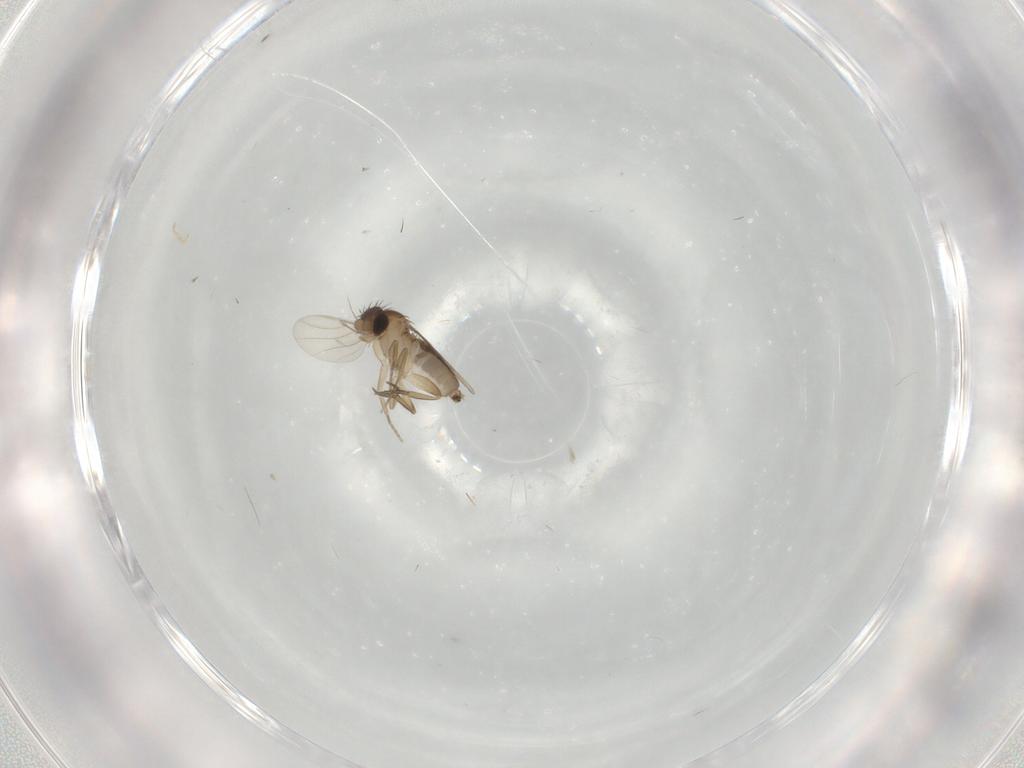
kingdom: Animalia
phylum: Arthropoda
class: Insecta
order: Diptera
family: Phoridae
